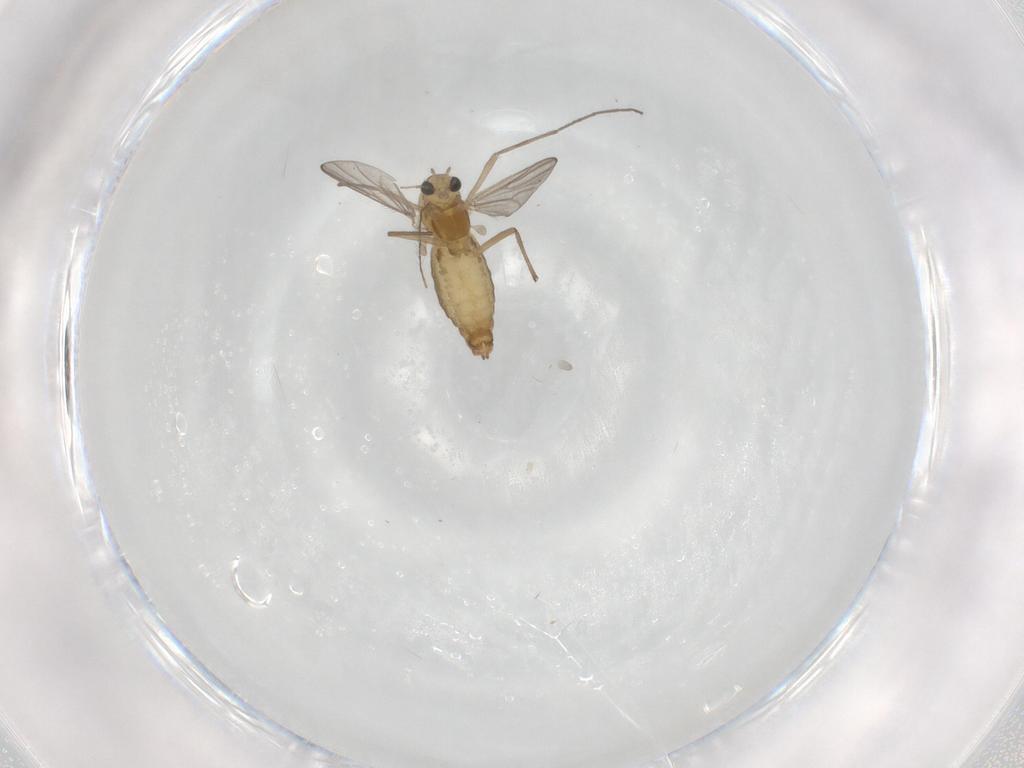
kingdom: Animalia
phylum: Arthropoda
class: Insecta
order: Diptera
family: Chironomidae
